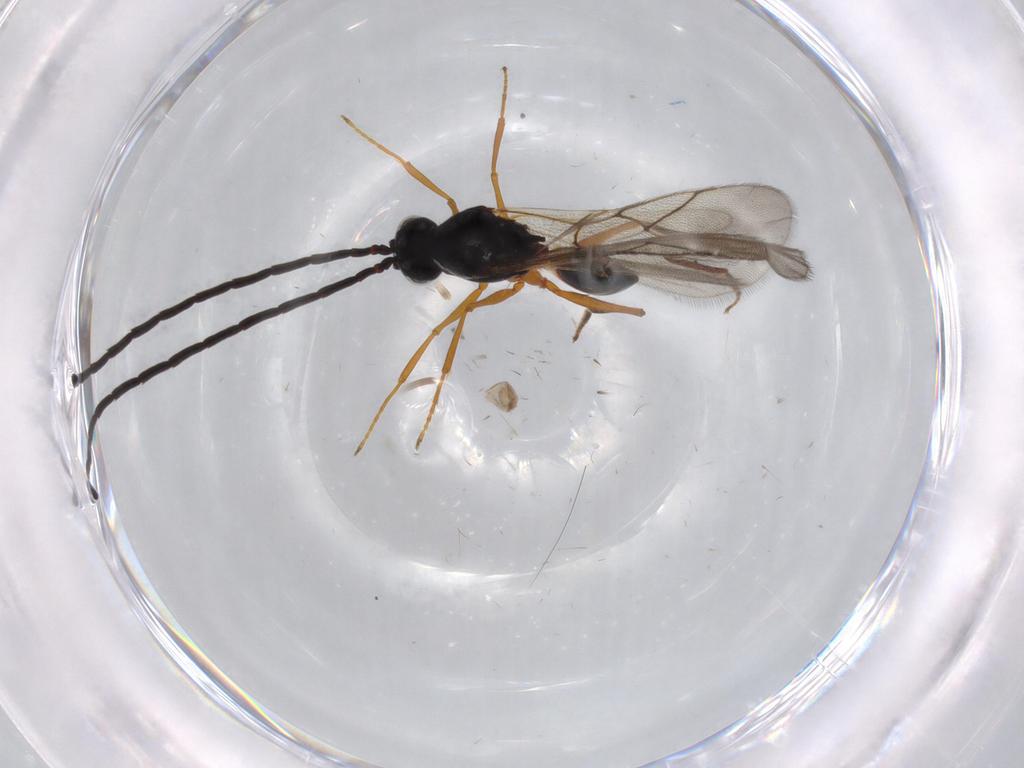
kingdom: Animalia
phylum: Arthropoda
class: Insecta
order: Hymenoptera
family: Figitidae
